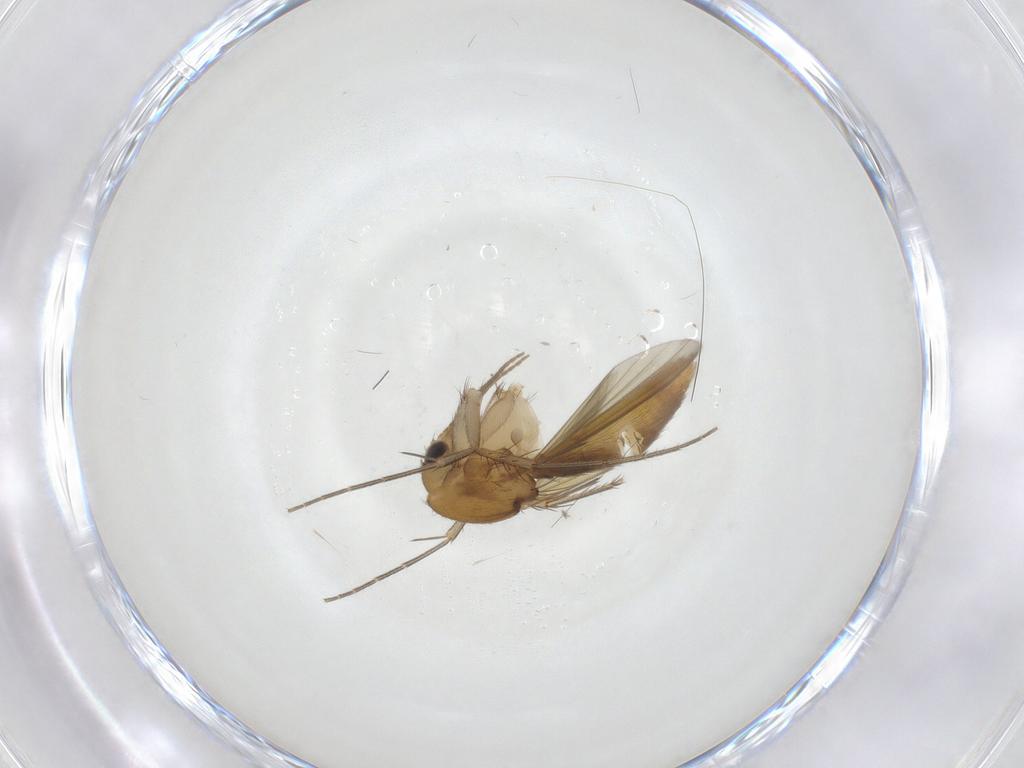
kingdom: Animalia
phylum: Arthropoda
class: Insecta
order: Diptera
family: Mycetophilidae
